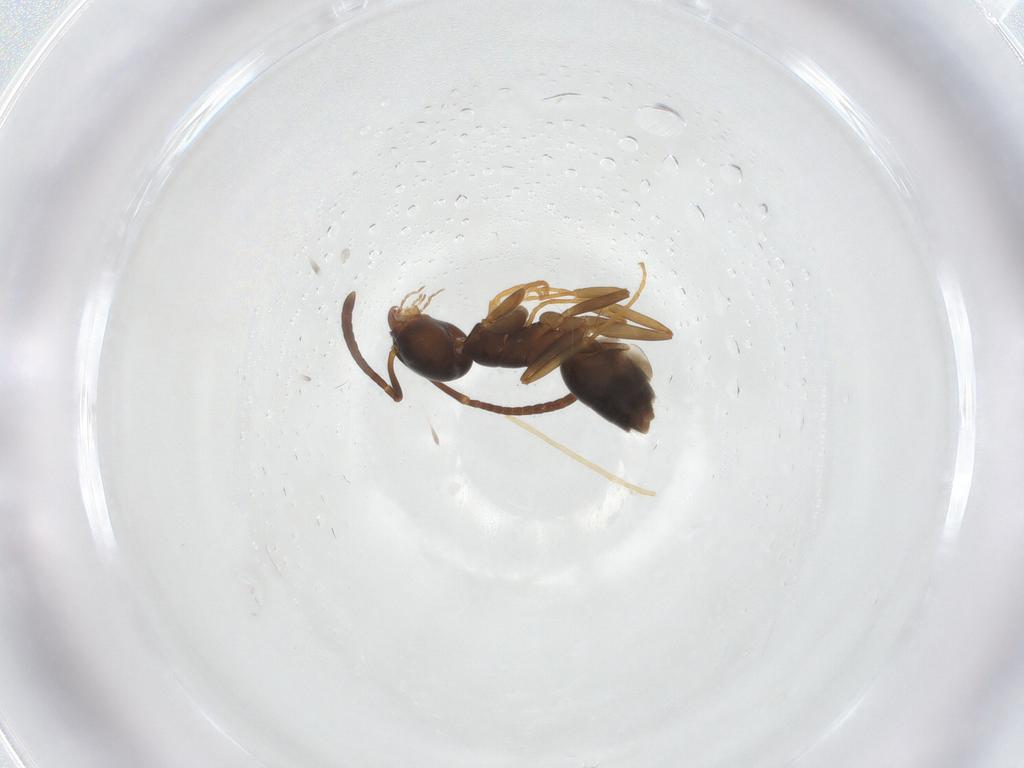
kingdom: Animalia
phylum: Arthropoda
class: Insecta
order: Hymenoptera
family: Formicidae
